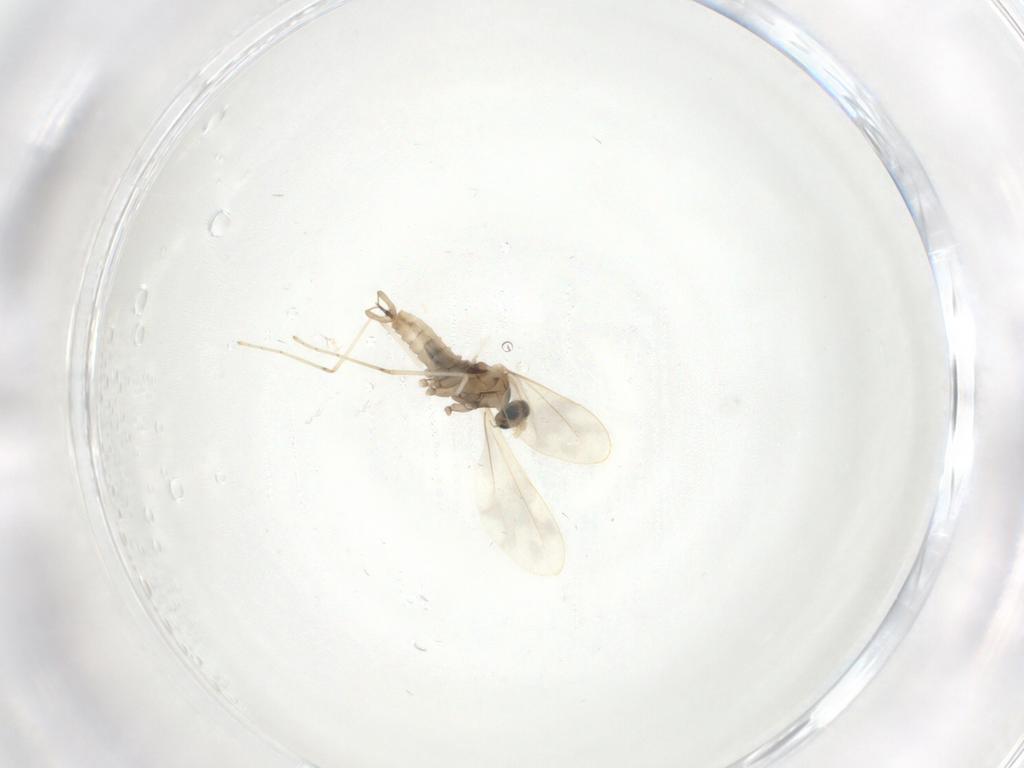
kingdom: Animalia
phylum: Arthropoda
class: Insecta
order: Diptera
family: Cecidomyiidae
